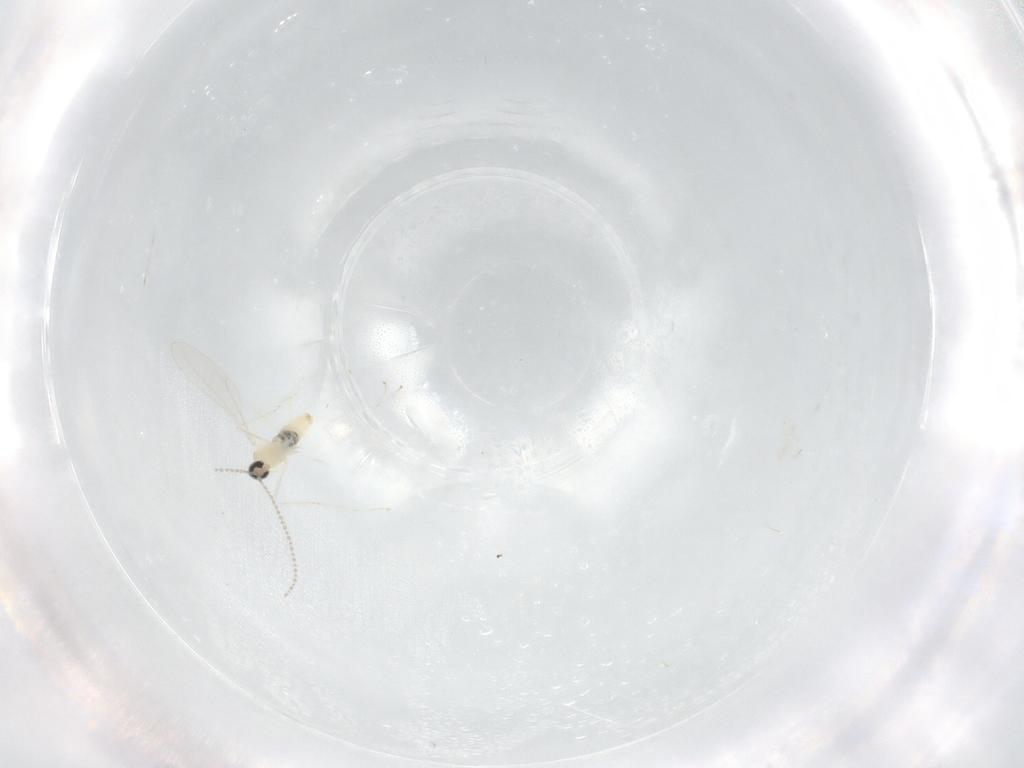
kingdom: Animalia
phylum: Arthropoda
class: Insecta
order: Diptera
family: Cecidomyiidae
